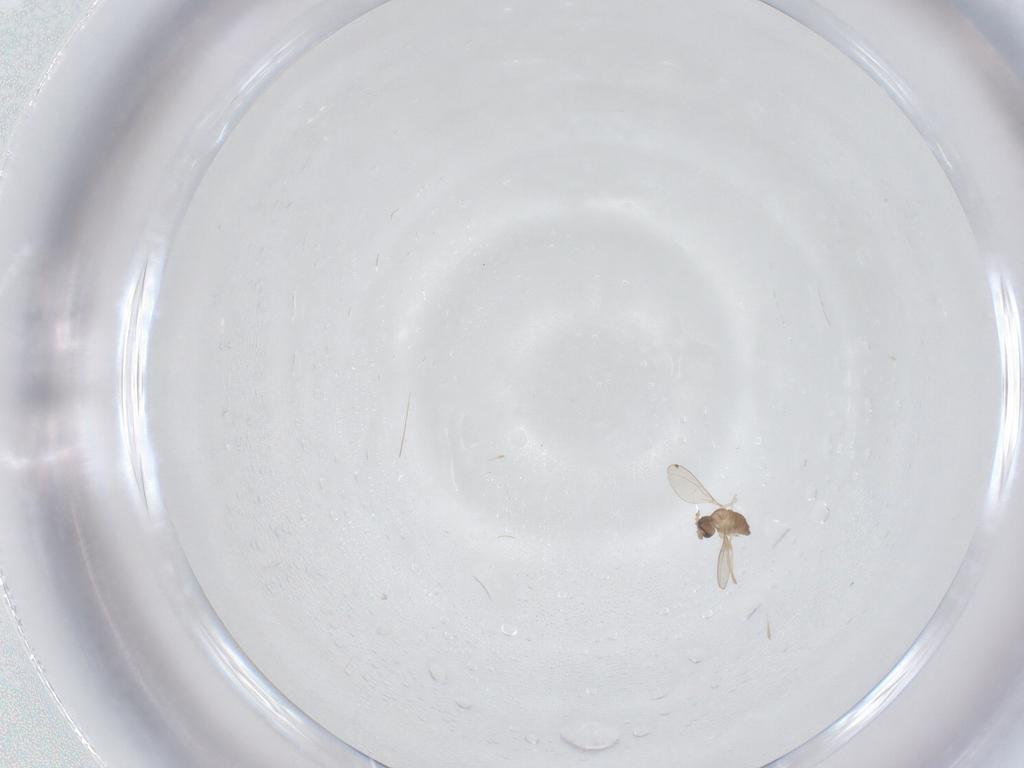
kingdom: Animalia
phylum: Arthropoda
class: Insecta
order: Diptera
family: Cecidomyiidae
